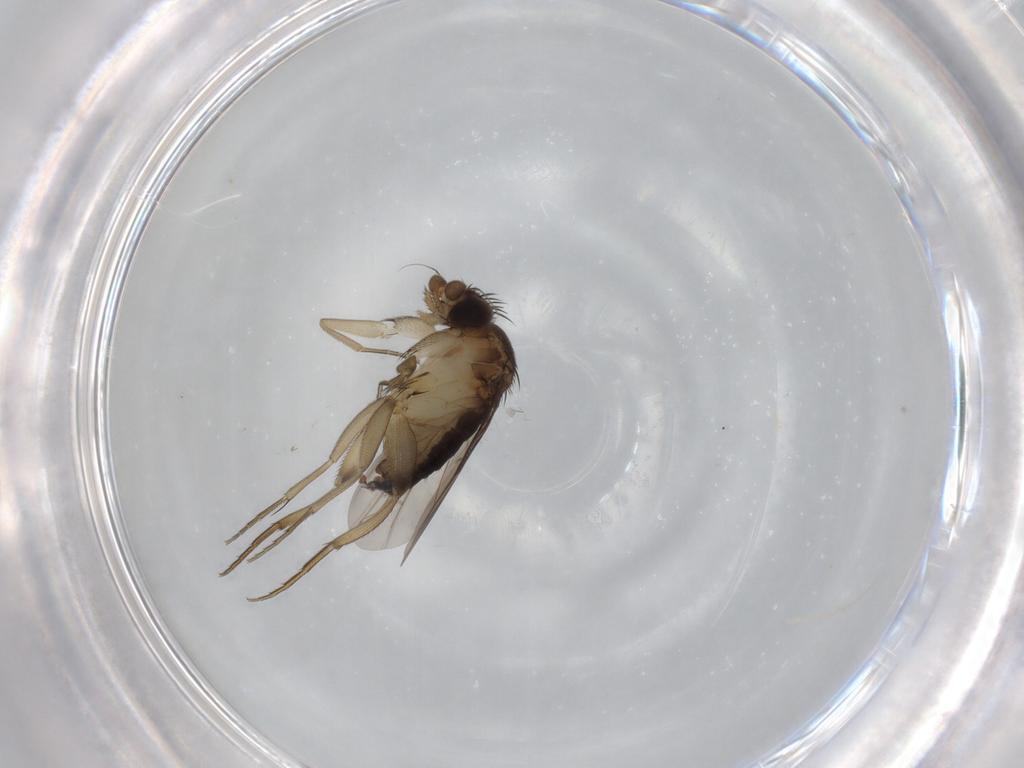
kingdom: Animalia
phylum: Arthropoda
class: Insecta
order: Diptera
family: Phoridae
